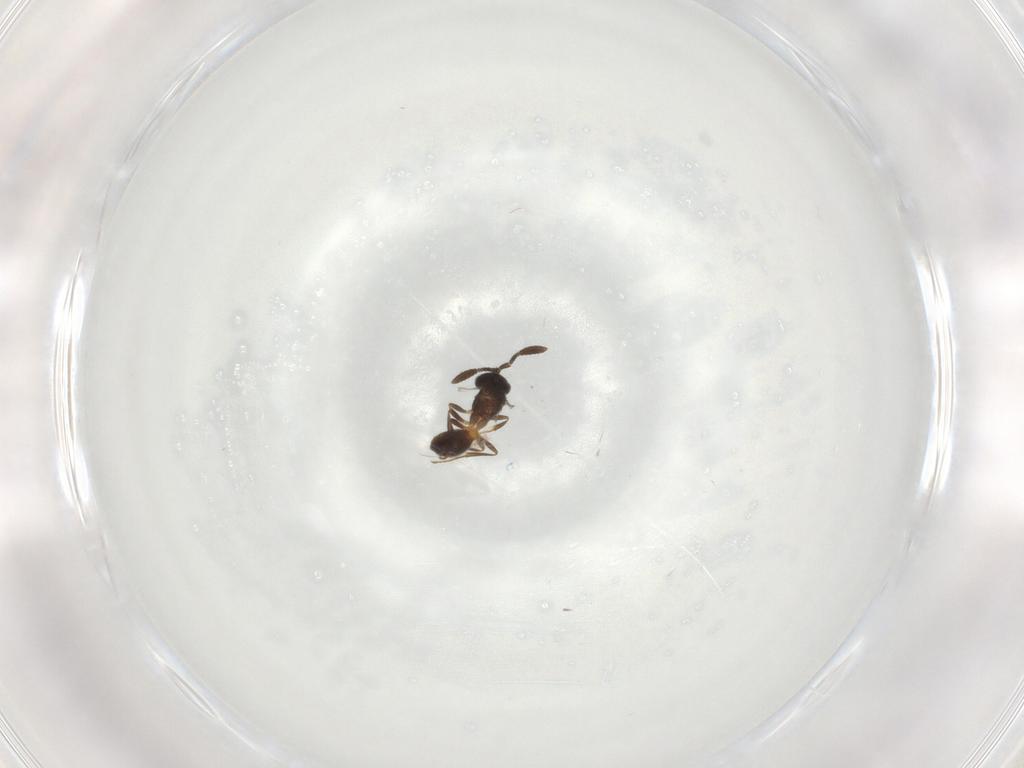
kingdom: Animalia
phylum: Arthropoda
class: Insecta
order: Hymenoptera
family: Scelionidae
